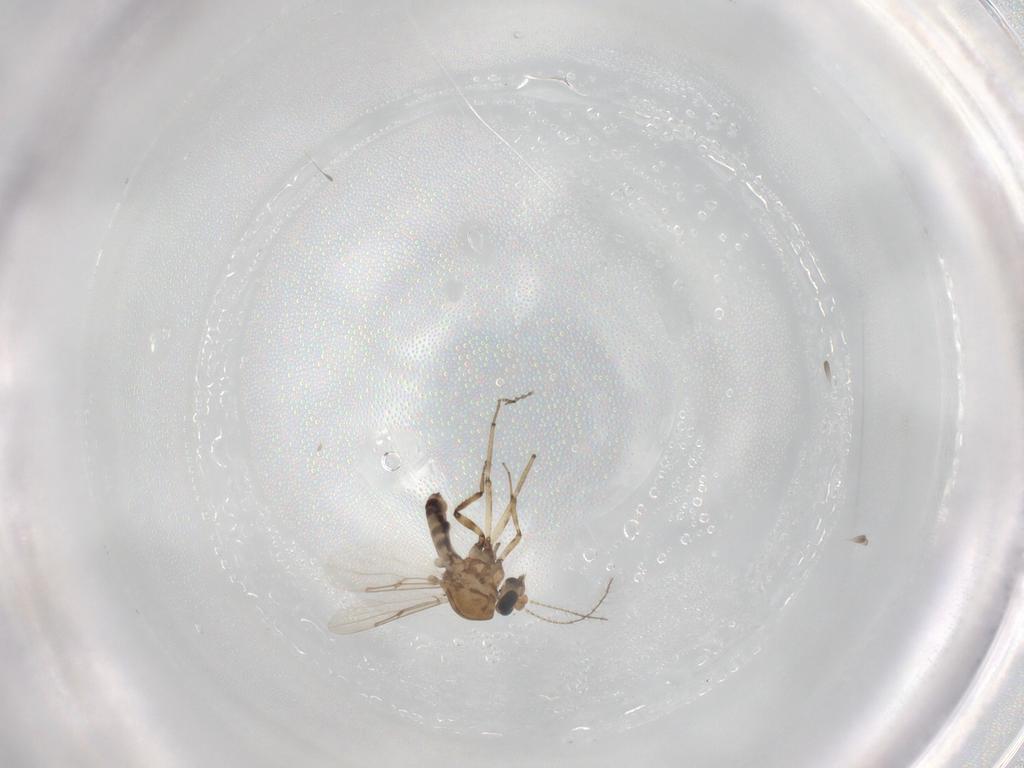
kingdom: Animalia
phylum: Arthropoda
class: Insecta
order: Diptera
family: Ceratopogonidae
